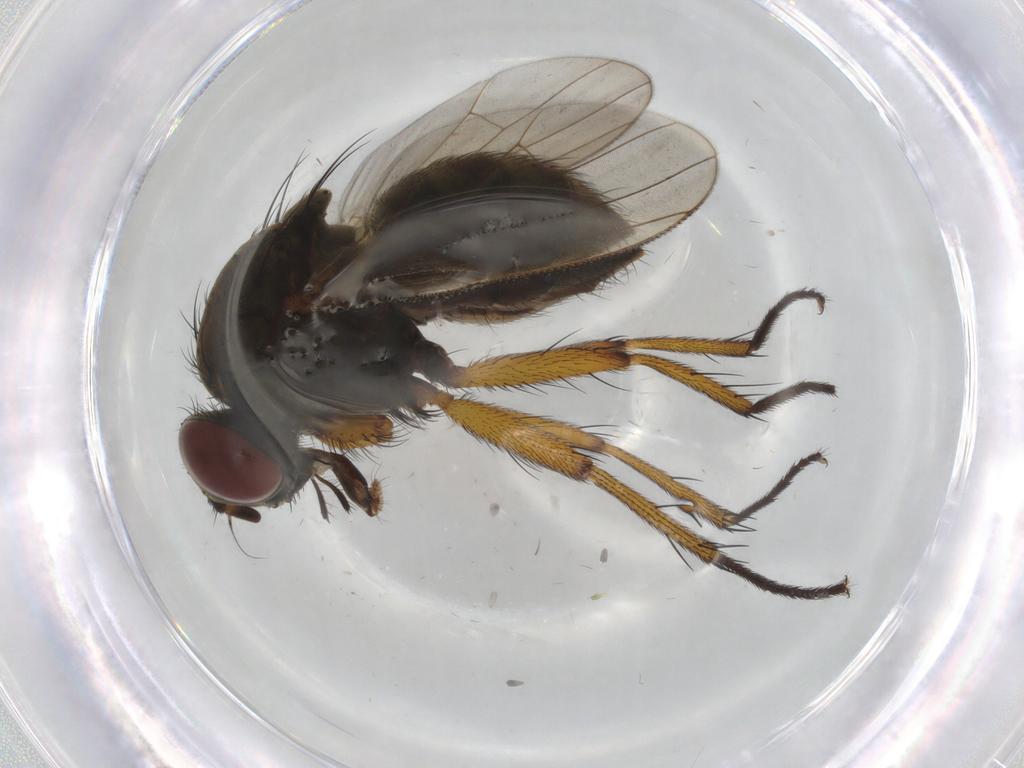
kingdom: Animalia
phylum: Arthropoda
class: Insecta
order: Diptera
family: Muscidae
